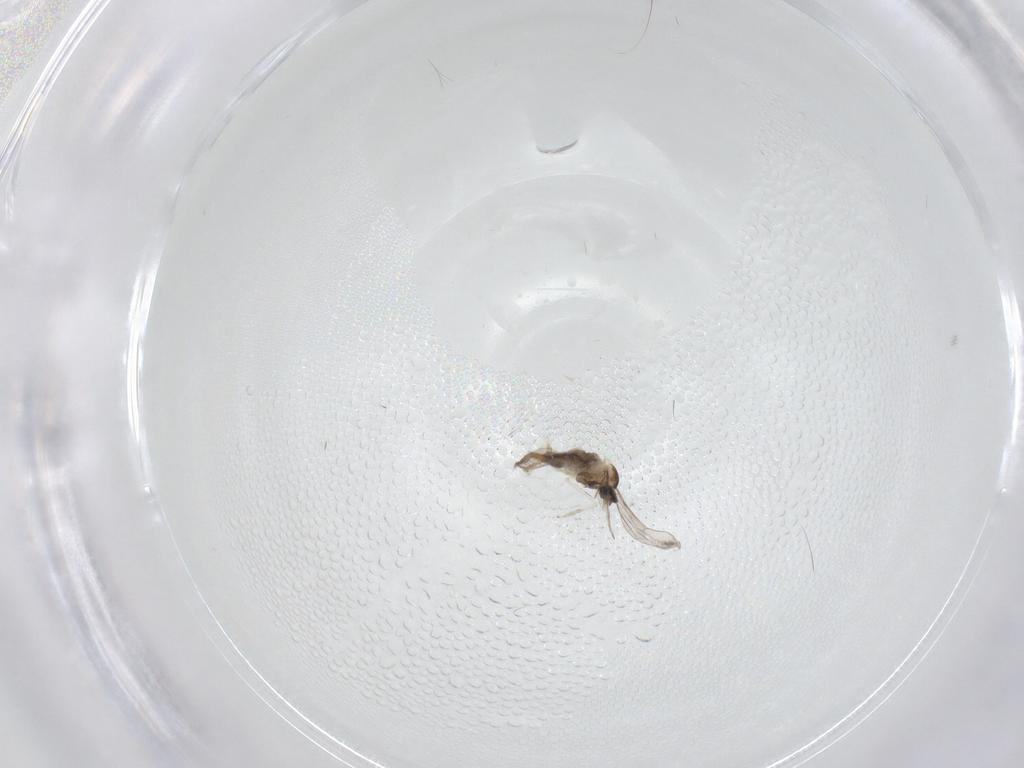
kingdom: Animalia
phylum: Arthropoda
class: Insecta
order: Diptera
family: Cecidomyiidae
